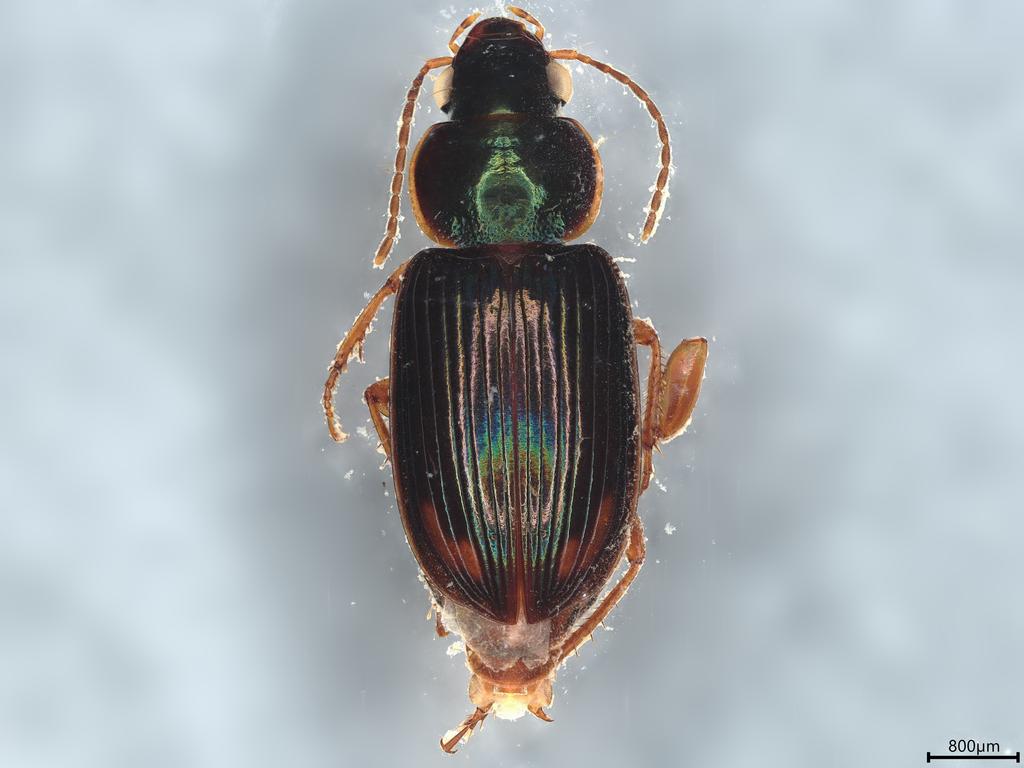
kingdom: Animalia
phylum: Arthropoda
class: Insecta
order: Coleoptera
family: Carabidae
